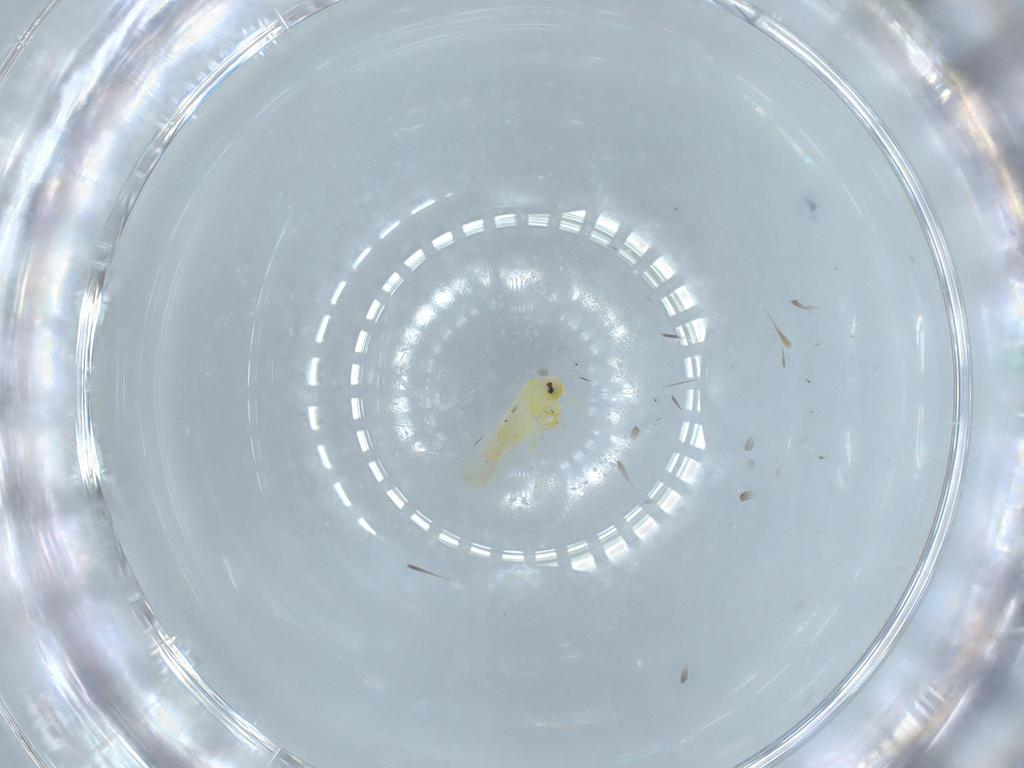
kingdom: Animalia
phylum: Arthropoda
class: Insecta
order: Hemiptera
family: Aleyrodidae
